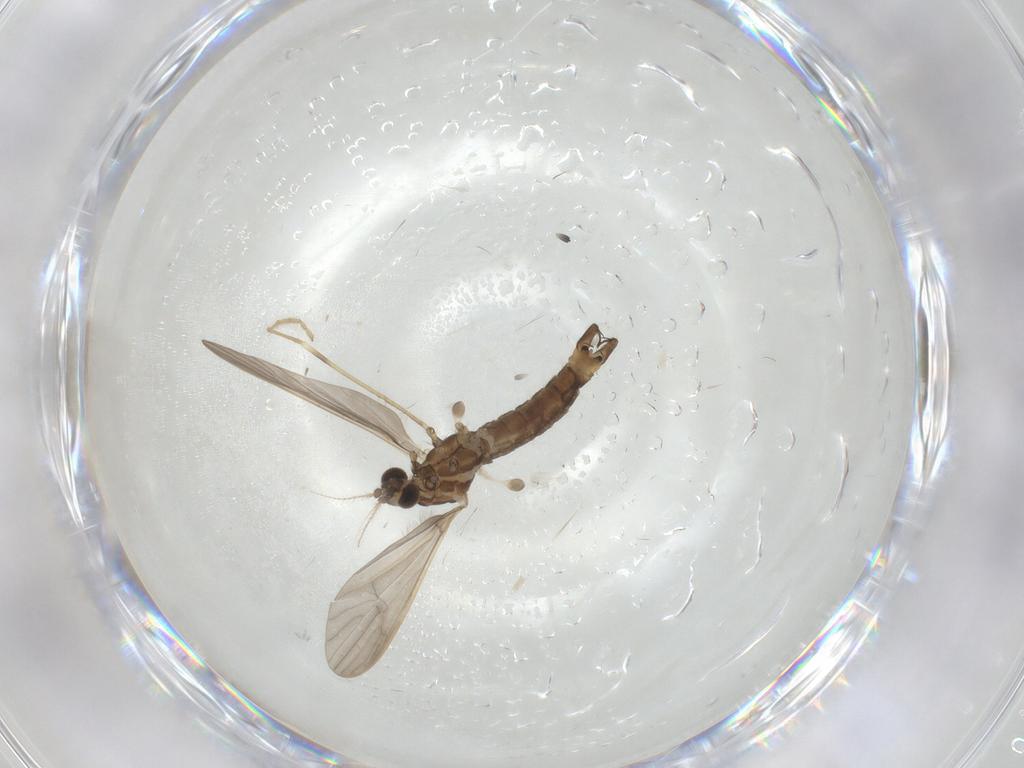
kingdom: Animalia
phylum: Arthropoda
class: Insecta
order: Diptera
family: Limoniidae
